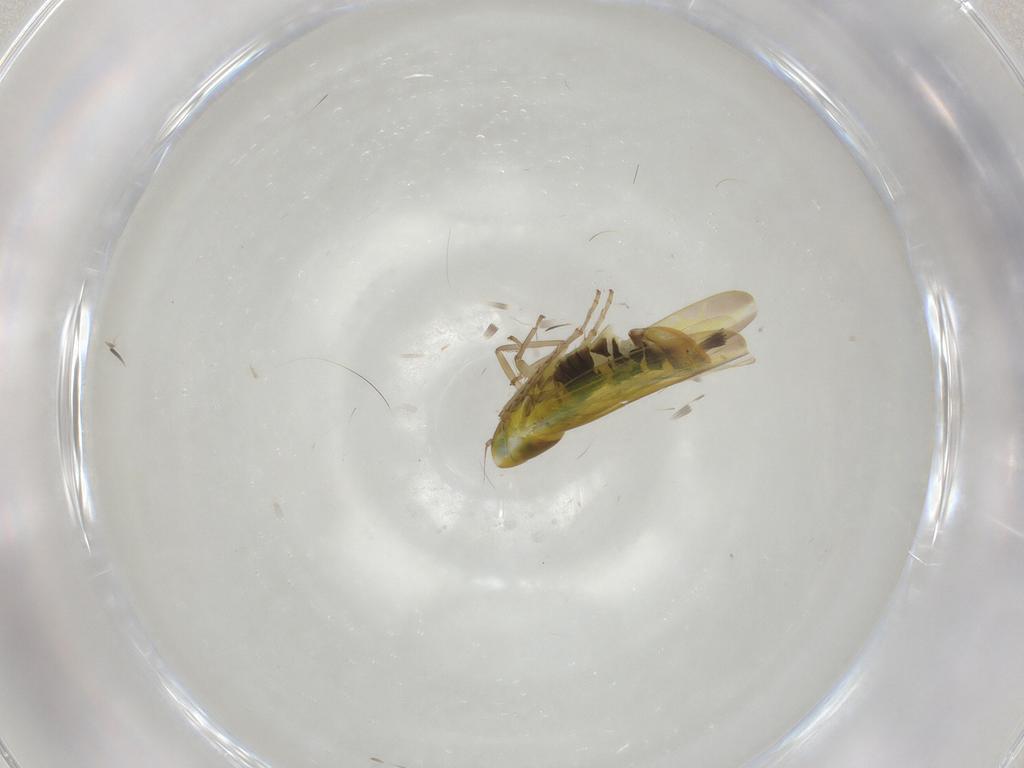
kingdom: Animalia
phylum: Arthropoda
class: Insecta
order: Hemiptera
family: Cicadellidae
